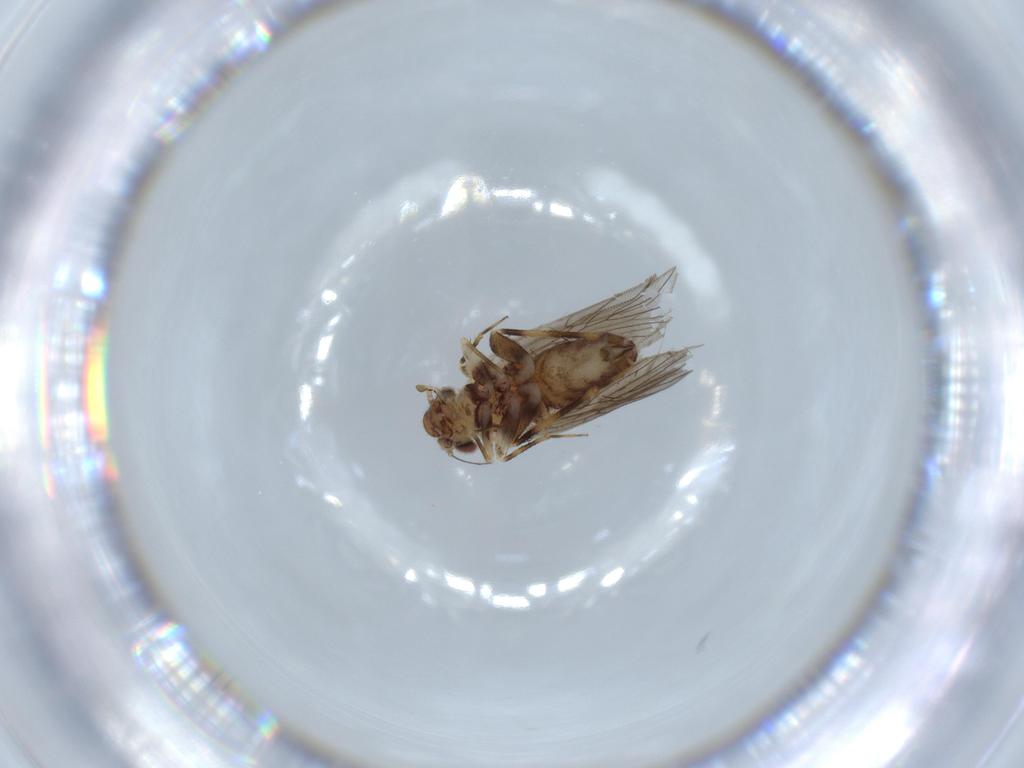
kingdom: Animalia
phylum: Arthropoda
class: Insecta
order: Psocodea
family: Lepidopsocidae
